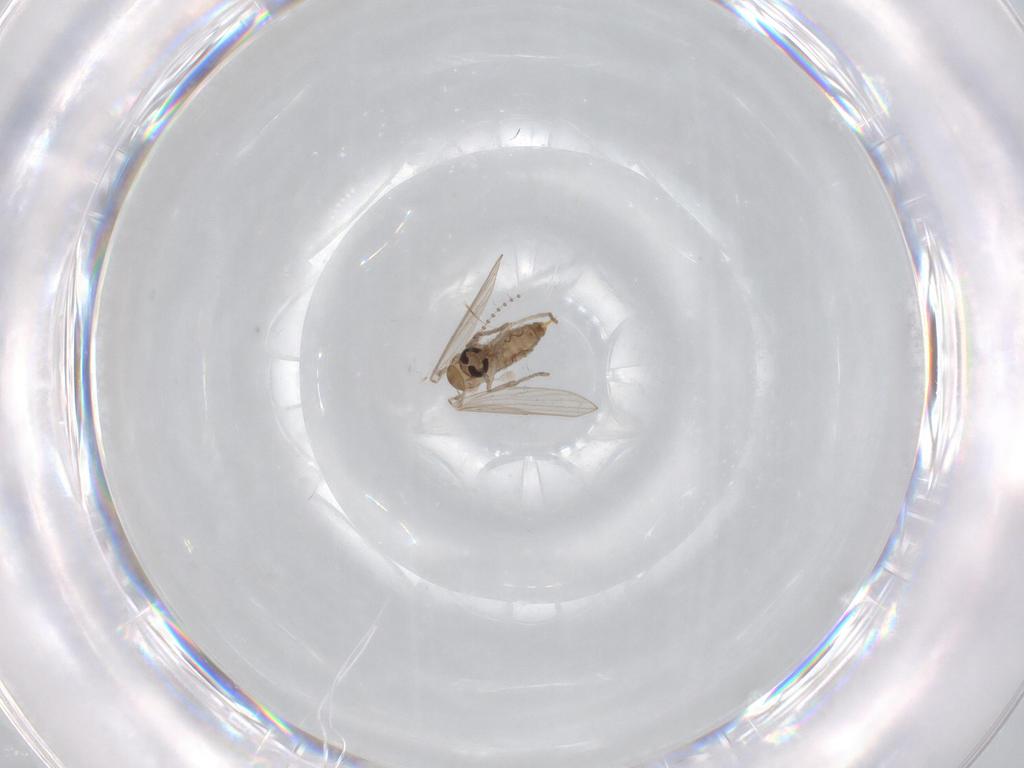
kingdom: Animalia
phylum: Arthropoda
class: Insecta
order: Diptera
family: Psychodidae
